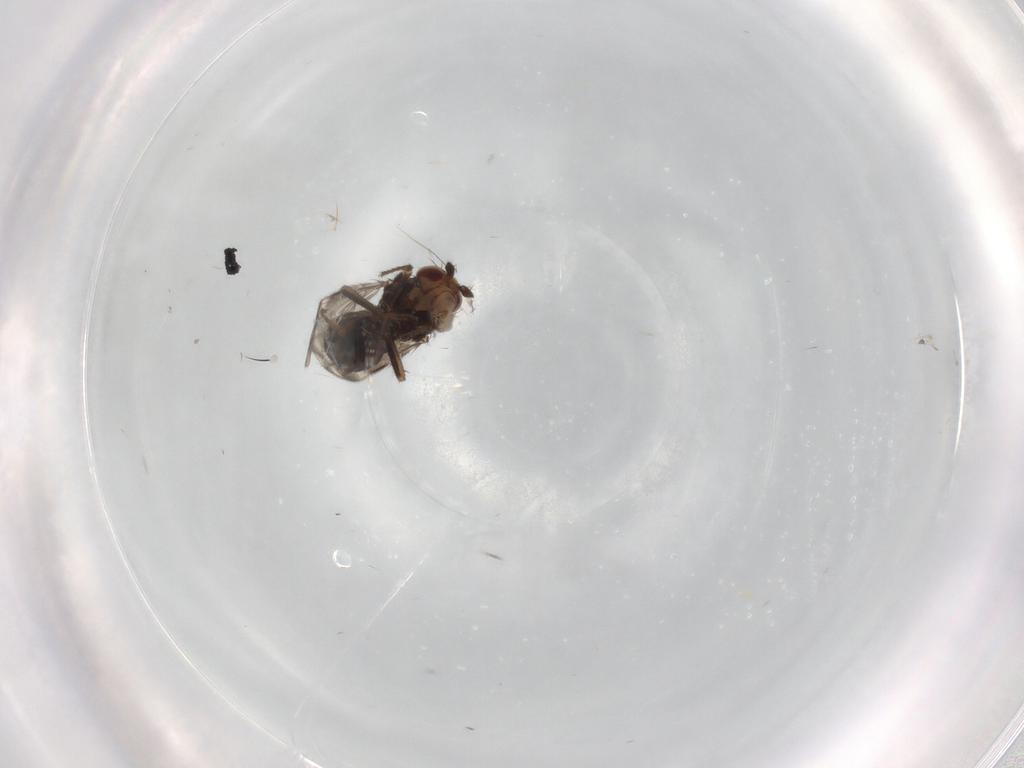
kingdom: Animalia
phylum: Arthropoda
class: Insecta
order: Diptera
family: Sphaeroceridae
